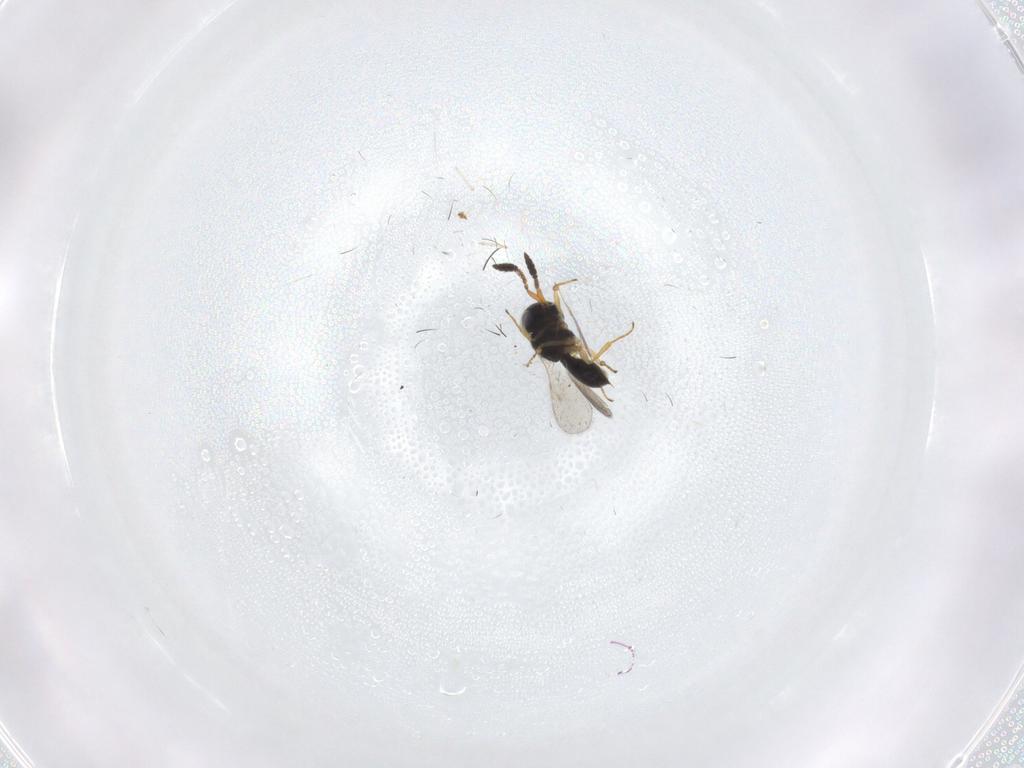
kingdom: Animalia
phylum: Arthropoda
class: Insecta
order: Hymenoptera
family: Scelionidae
